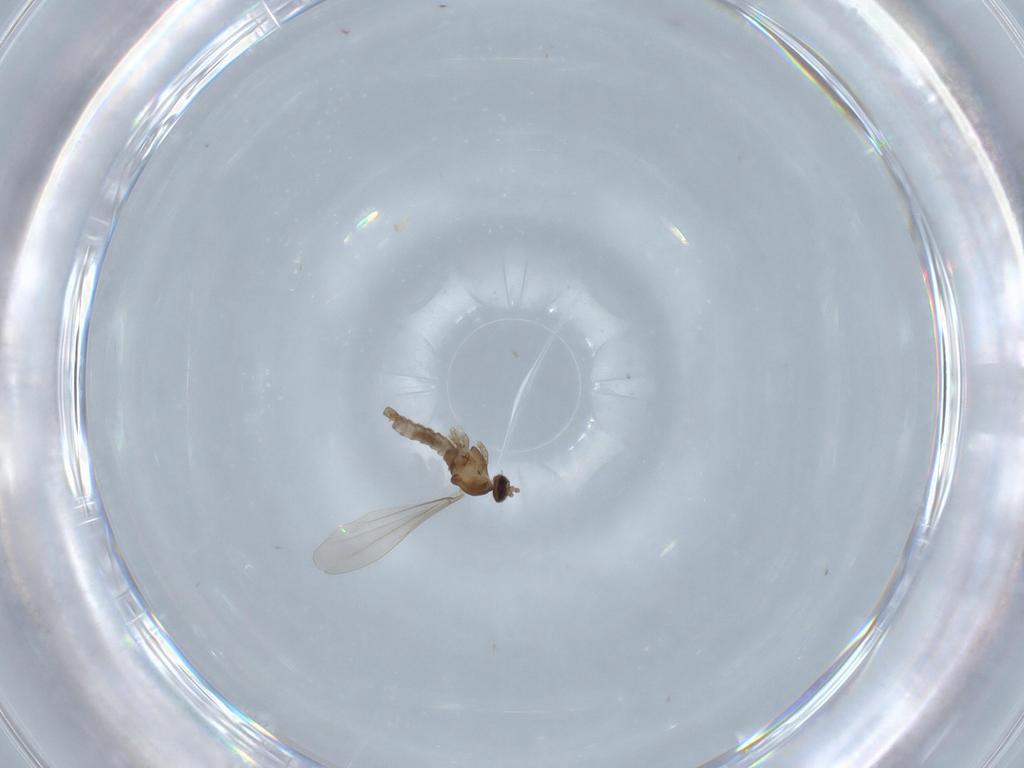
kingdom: Animalia
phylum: Arthropoda
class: Insecta
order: Diptera
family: Cecidomyiidae
